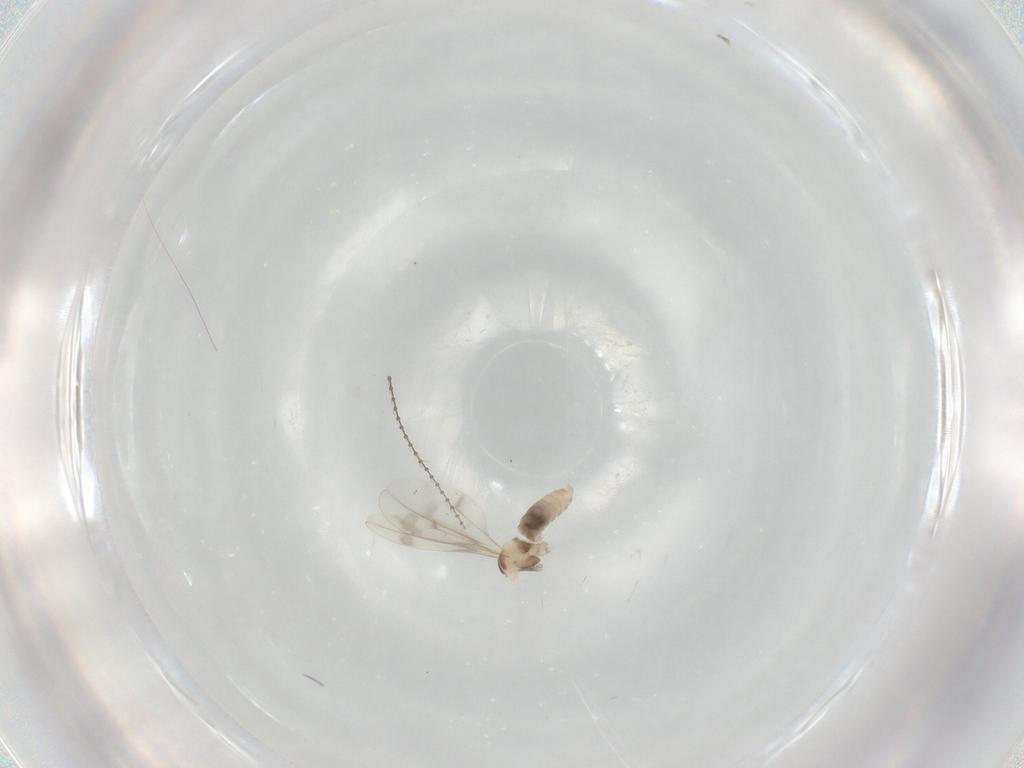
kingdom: Animalia
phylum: Arthropoda
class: Insecta
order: Diptera
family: Cecidomyiidae
